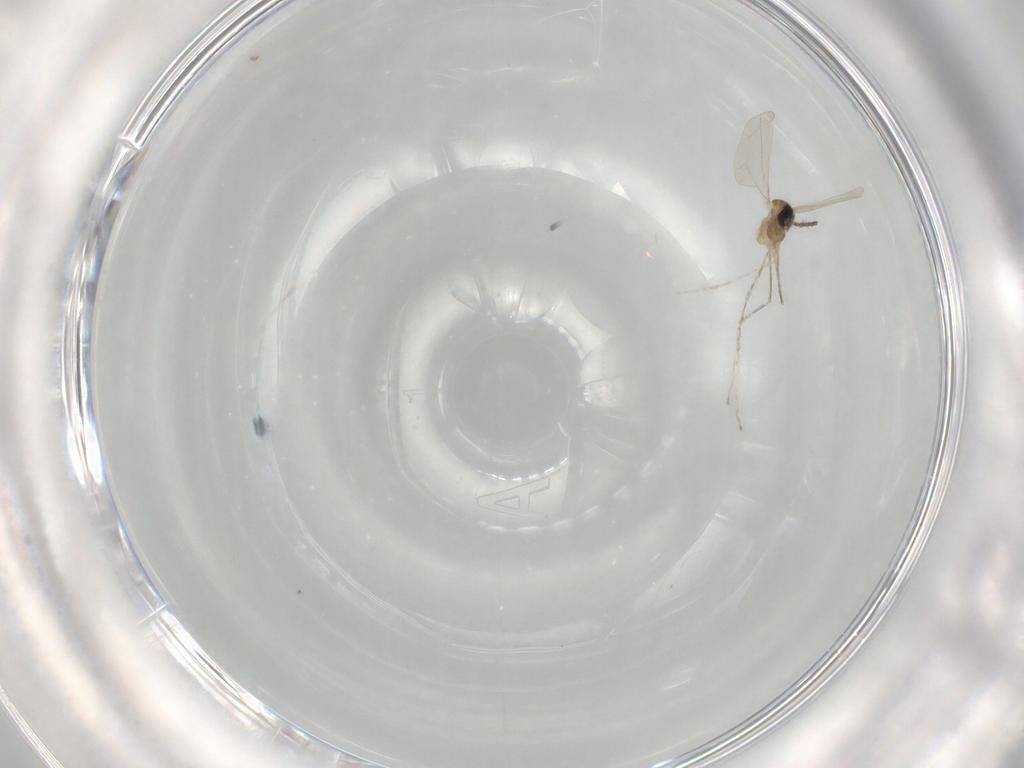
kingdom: Animalia
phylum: Arthropoda
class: Insecta
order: Diptera
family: Cecidomyiidae
